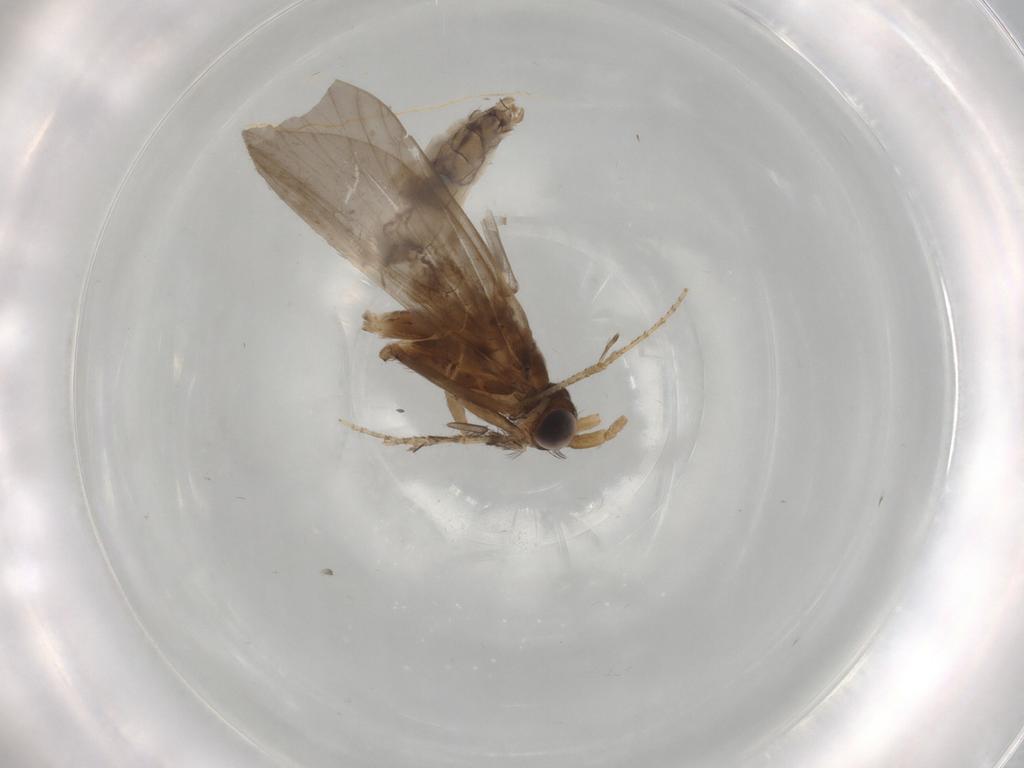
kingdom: Animalia
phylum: Arthropoda
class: Insecta
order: Trichoptera
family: Helicopsychidae
